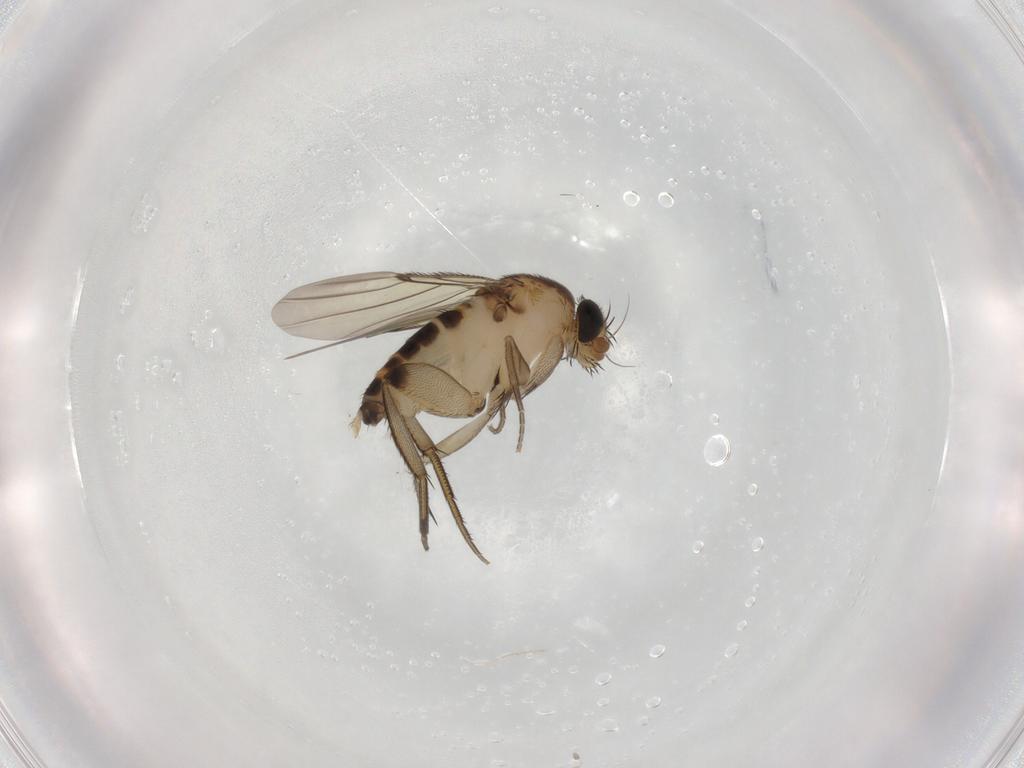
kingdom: Animalia
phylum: Arthropoda
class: Insecta
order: Diptera
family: Phoridae
